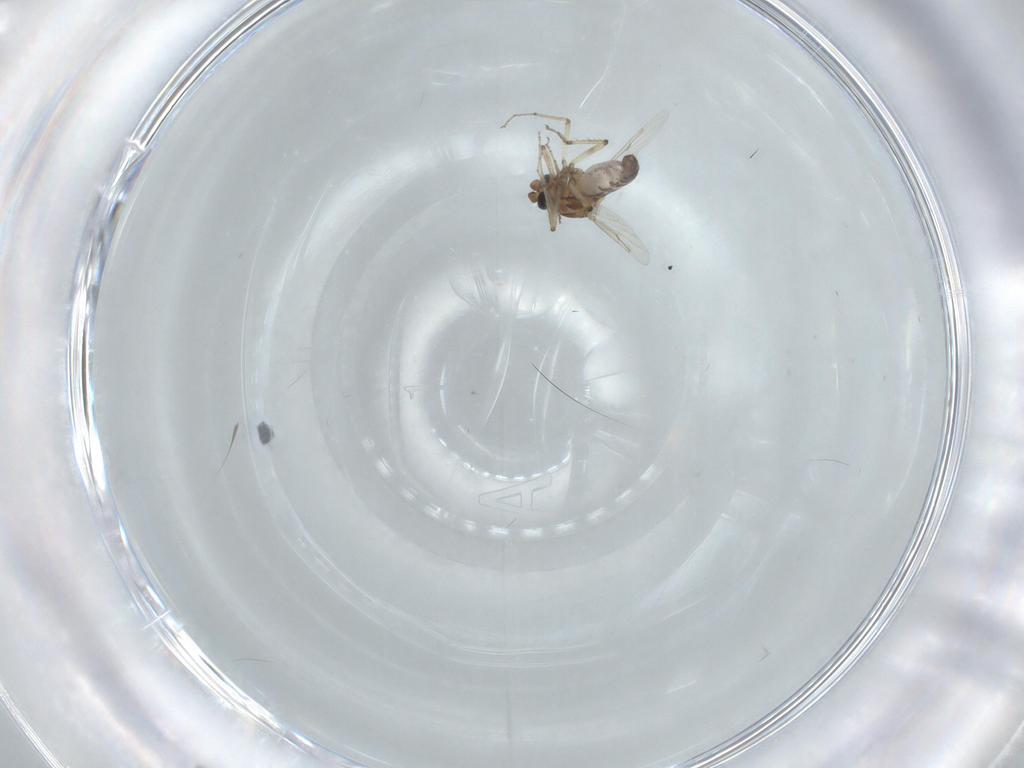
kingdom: Animalia
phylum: Arthropoda
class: Insecta
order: Diptera
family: Ceratopogonidae
